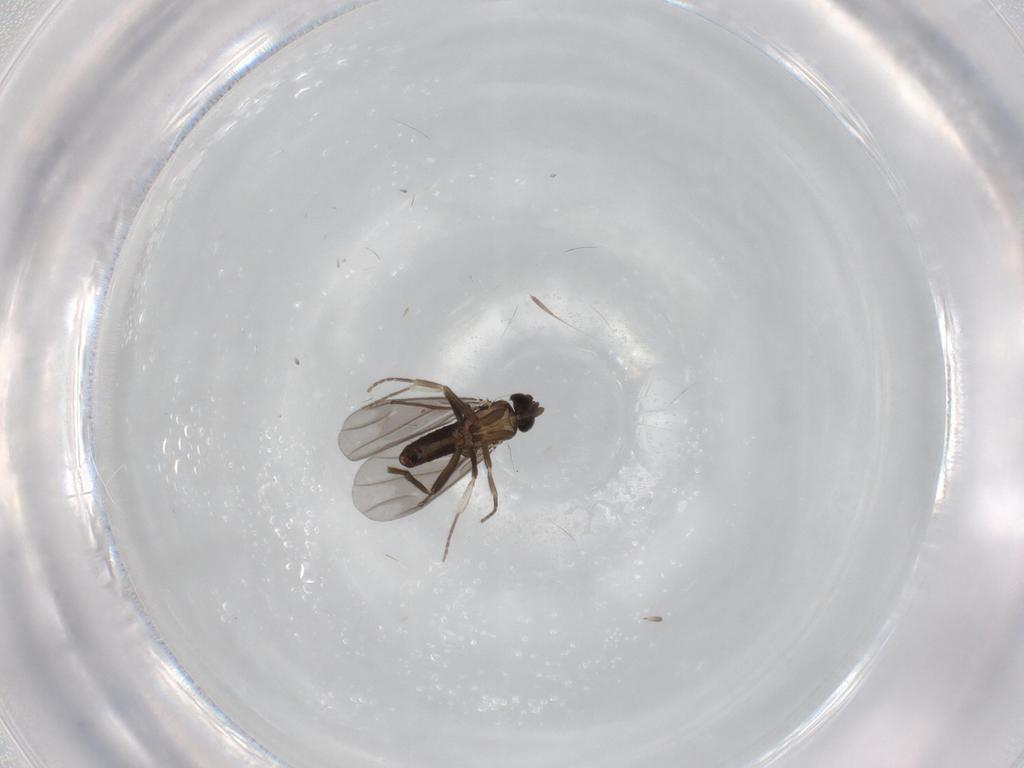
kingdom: Animalia
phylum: Arthropoda
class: Insecta
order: Diptera
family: Phoridae
